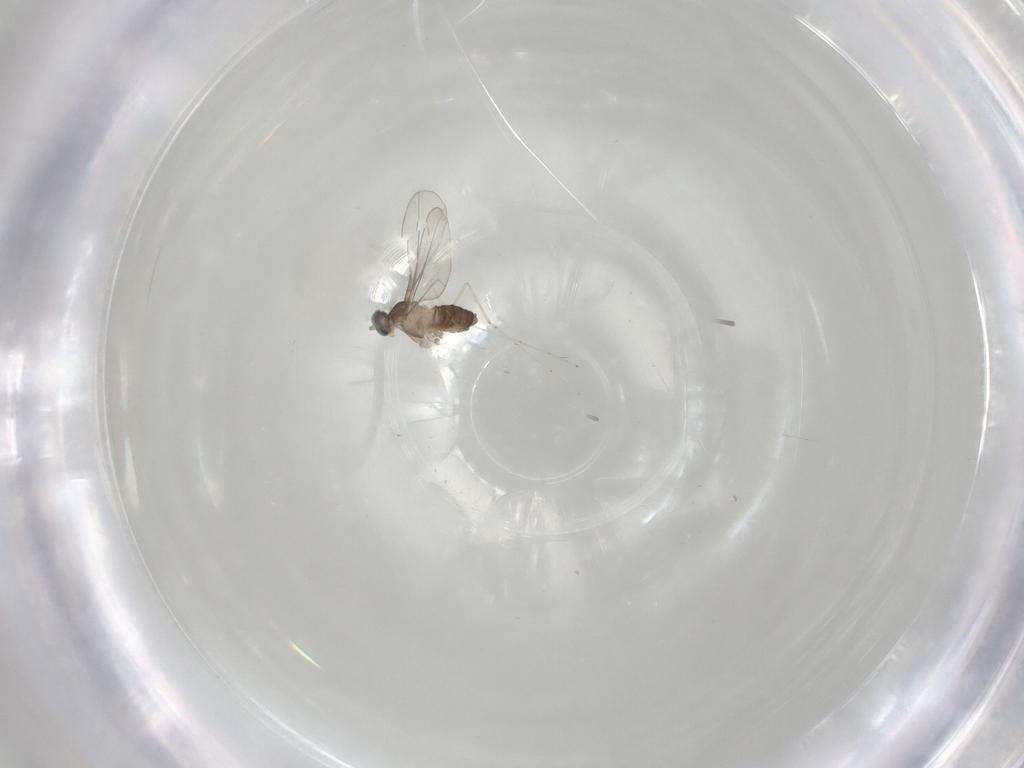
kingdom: Animalia
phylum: Arthropoda
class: Insecta
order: Diptera
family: Cecidomyiidae
